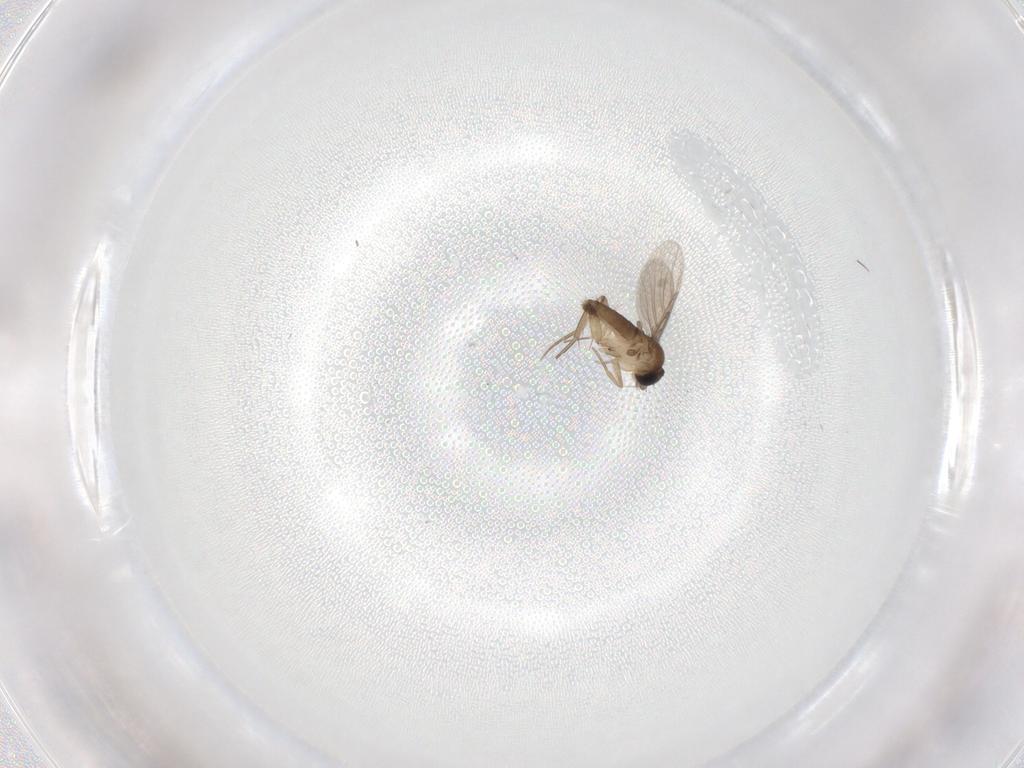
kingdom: Animalia
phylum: Arthropoda
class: Insecta
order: Diptera
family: Phoridae
